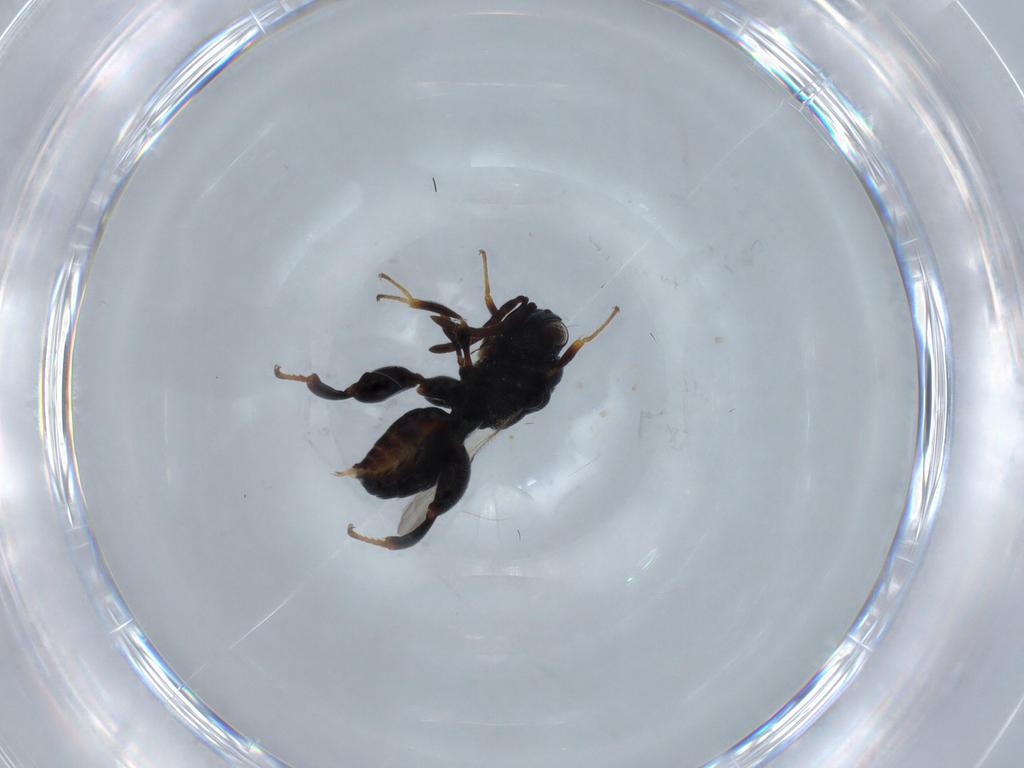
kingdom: Animalia
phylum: Arthropoda
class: Insecta
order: Hymenoptera
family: Chalcididae
